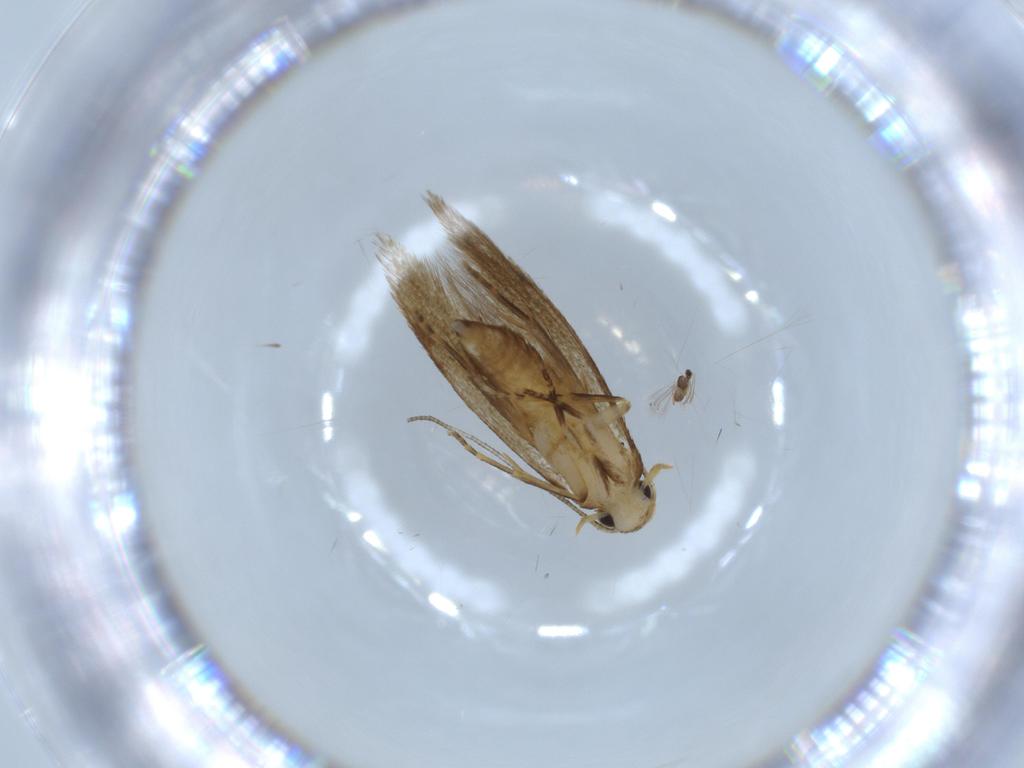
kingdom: Animalia
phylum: Arthropoda
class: Insecta
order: Lepidoptera
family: Tineidae
